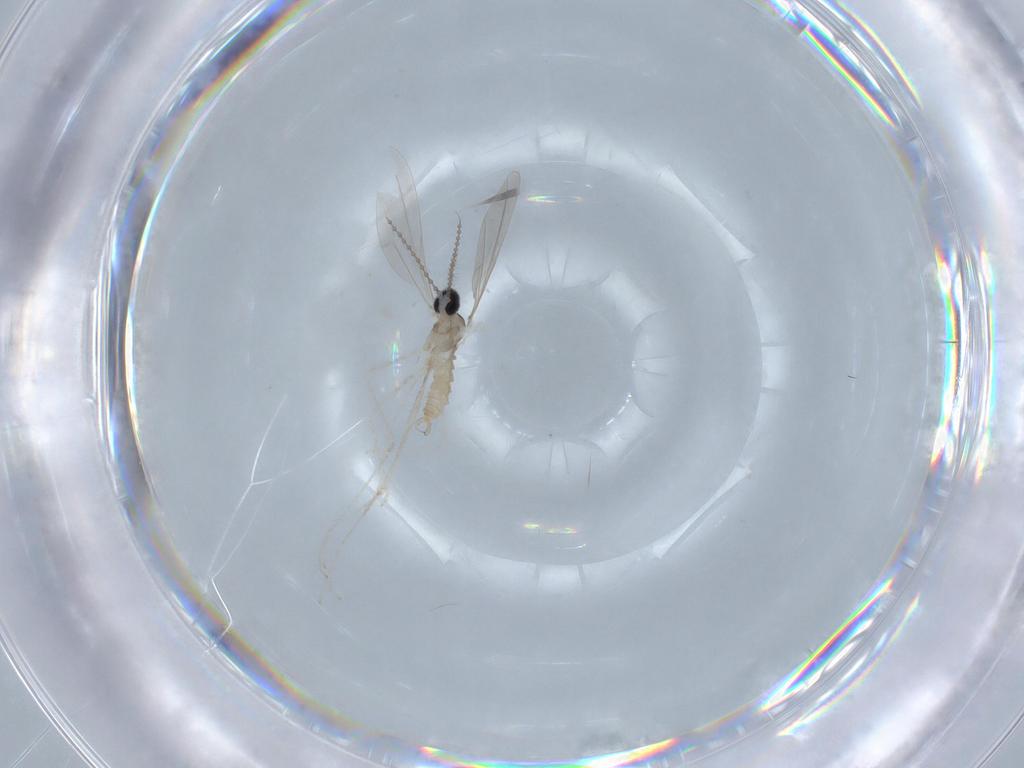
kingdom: Animalia
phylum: Arthropoda
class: Insecta
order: Diptera
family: Cecidomyiidae
